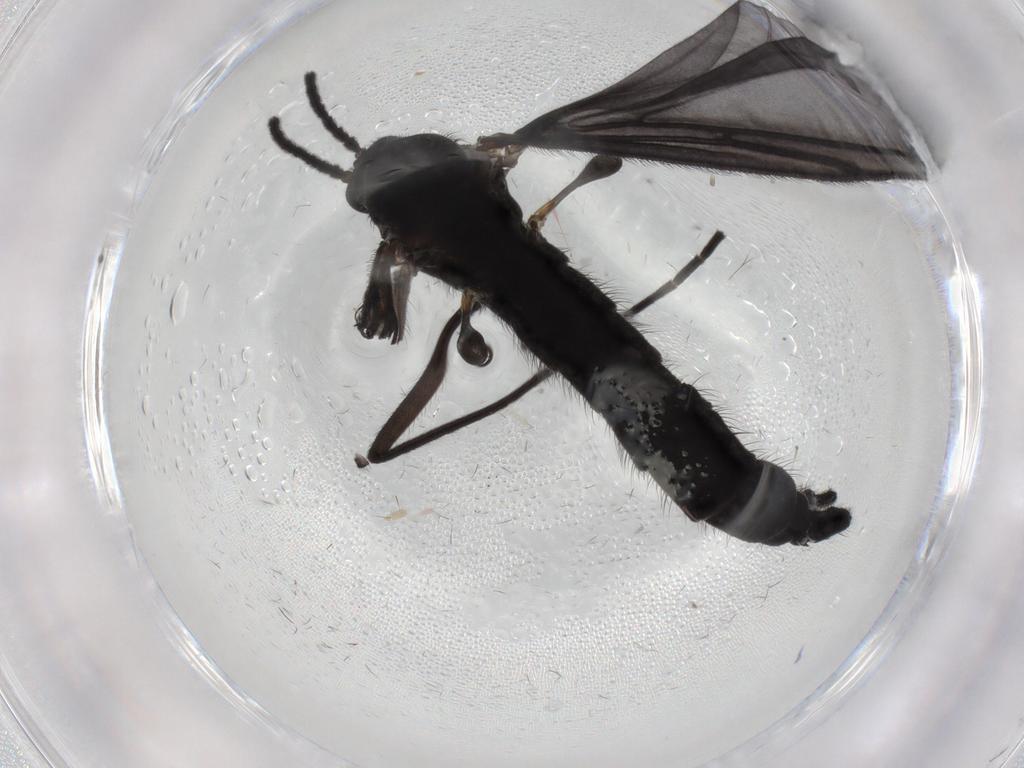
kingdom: Animalia
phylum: Arthropoda
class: Insecta
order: Diptera
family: Sciaridae
